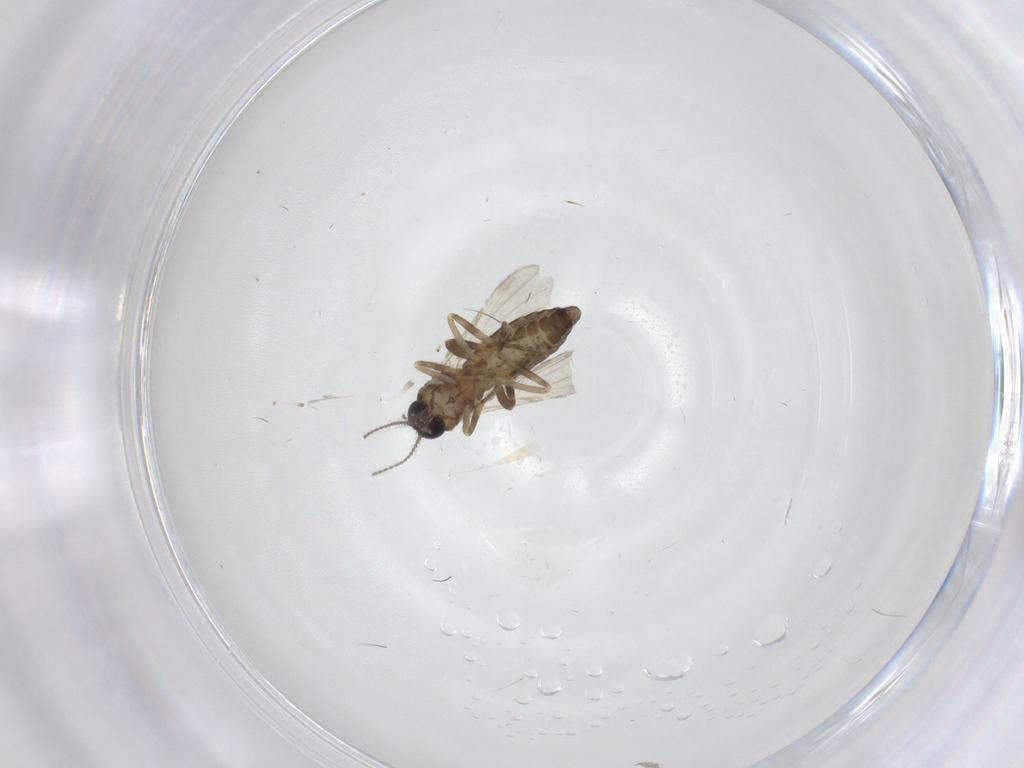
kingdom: Animalia
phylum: Arthropoda
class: Insecta
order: Diptera
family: Ceratopogonidae
